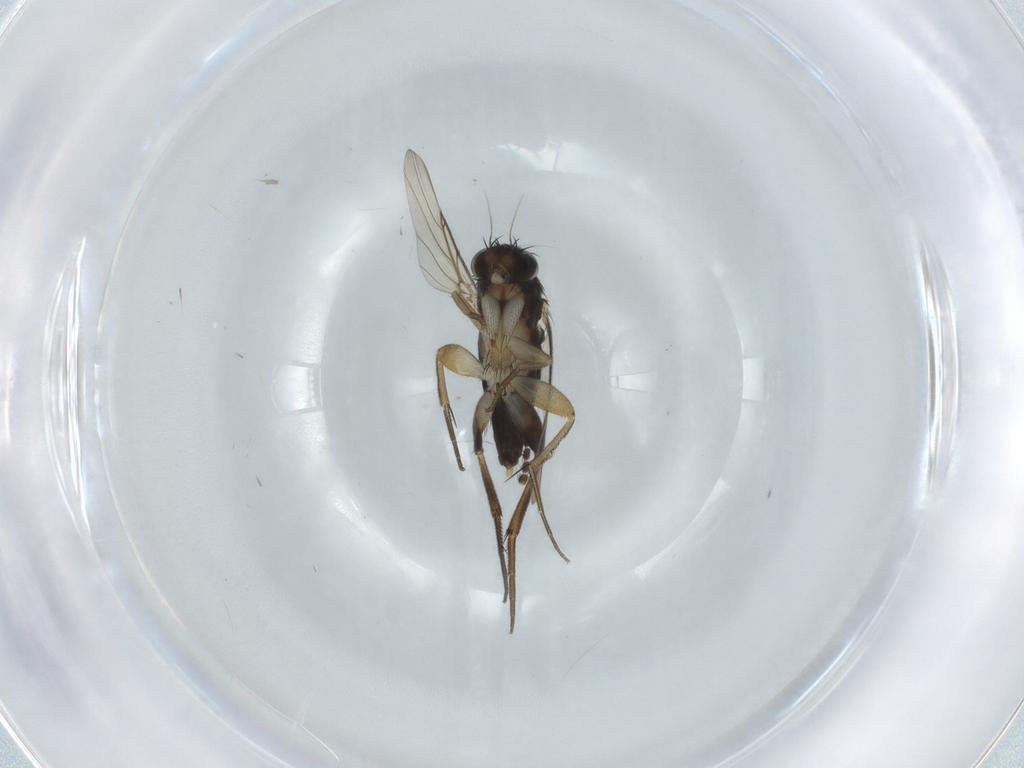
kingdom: Animalia
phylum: Arthropoda
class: Insecta
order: Diptera
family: Phoridae
